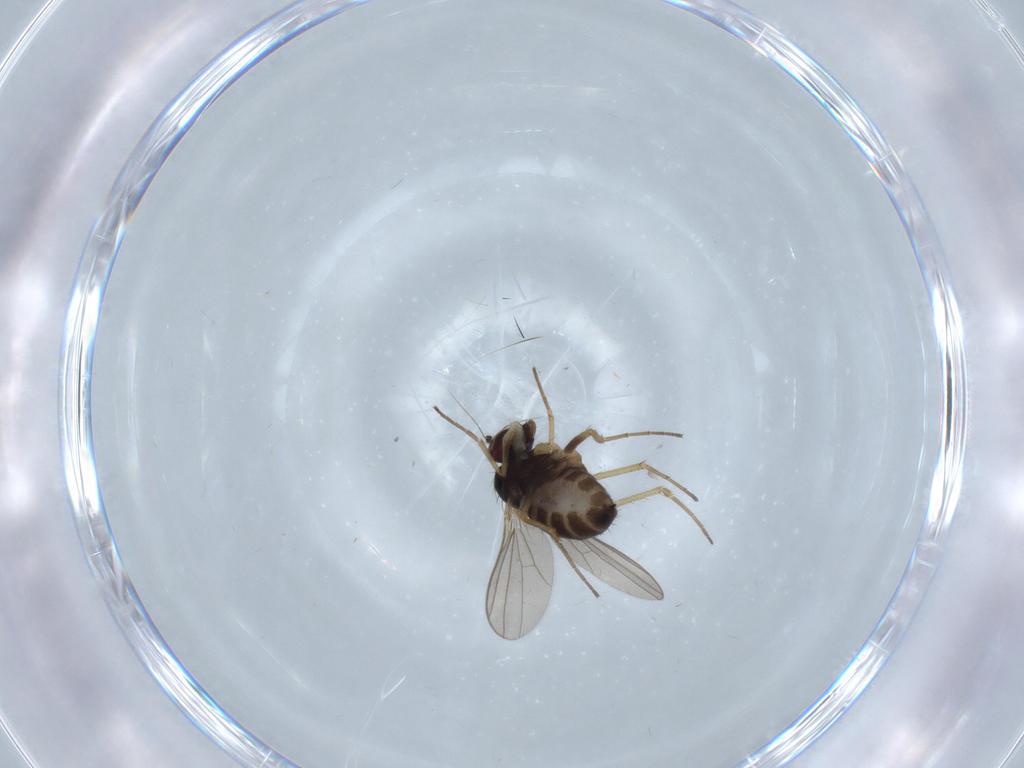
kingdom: Animalia
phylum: Arthropoda
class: Insecta
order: Diptera
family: Dolichopodidae
